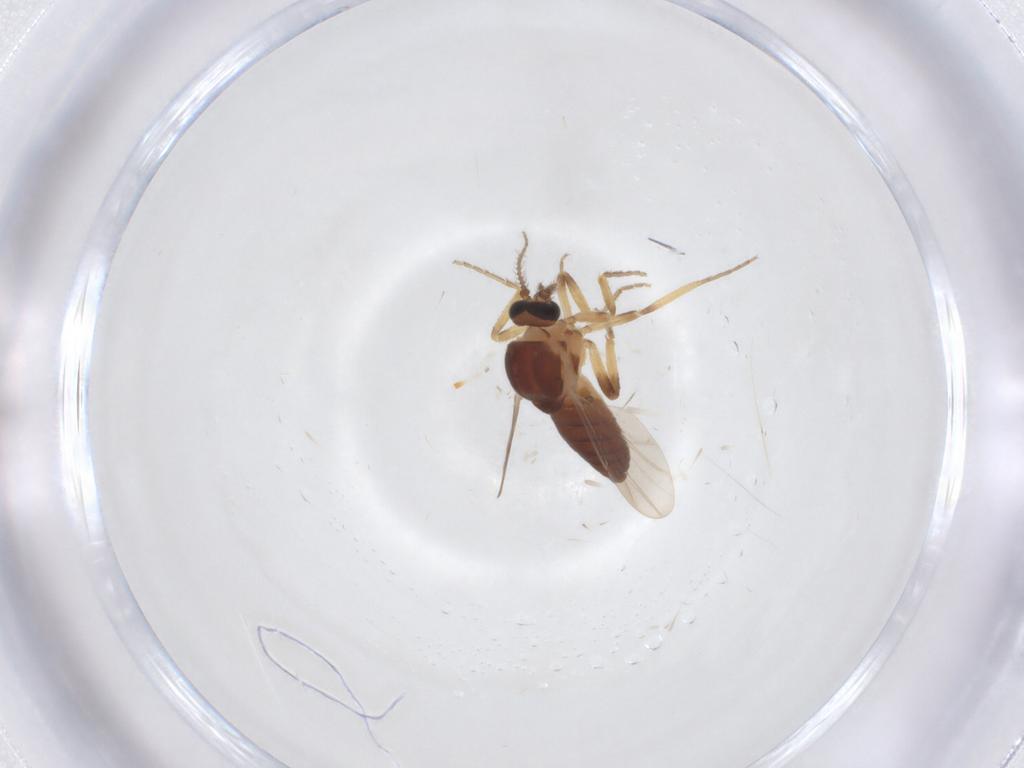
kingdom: Animalia
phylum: Arthropoda
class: Insecta
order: Diptera
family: Ceratopogonidae
